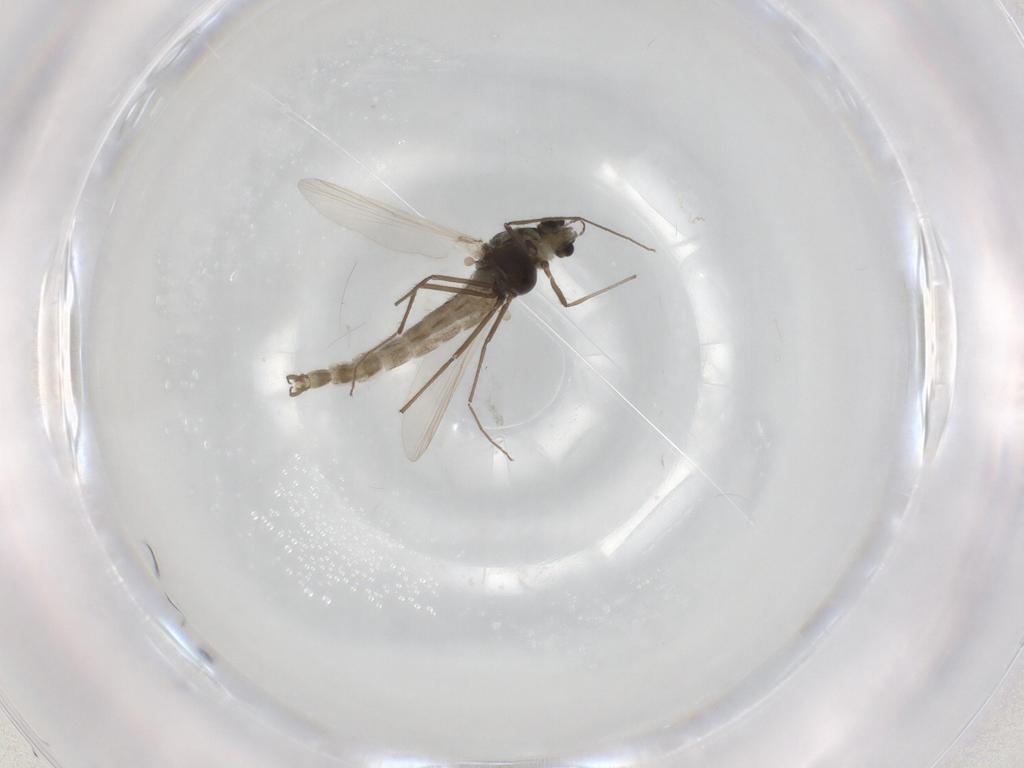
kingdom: Animalia
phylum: Arthropoda
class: Insecta
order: Diptera
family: Chironomidae
